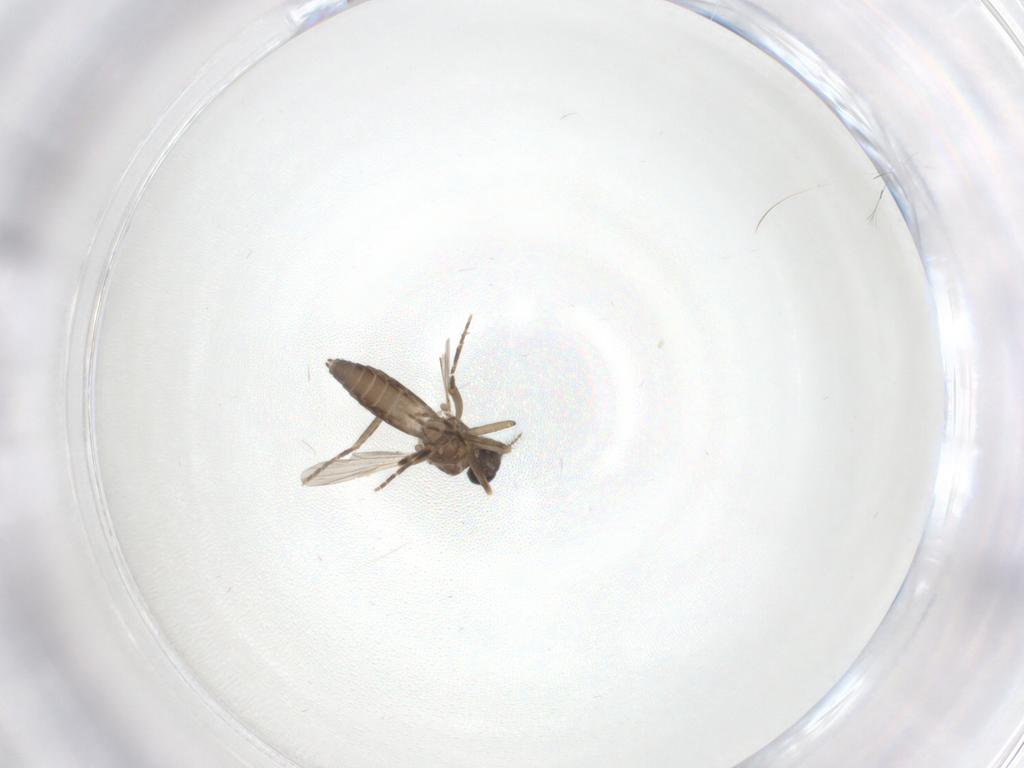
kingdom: Animalia
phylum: Arthropoda
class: Insecta
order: Diptera
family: Ceratopogonidae
